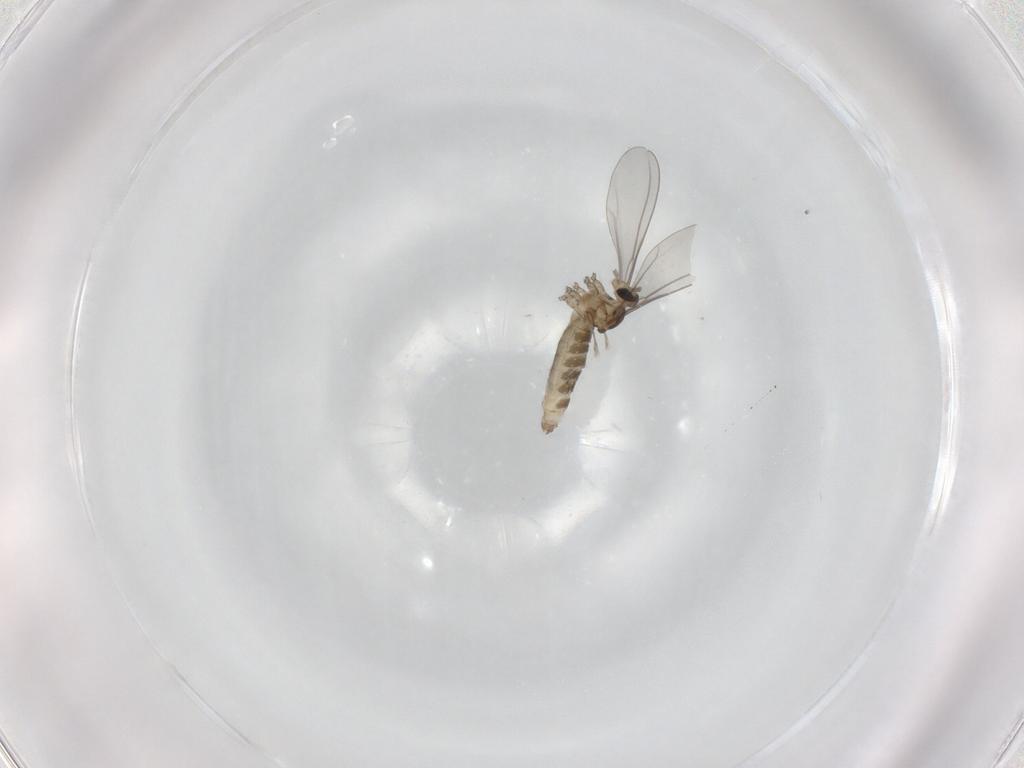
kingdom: Animalia
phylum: Arthropoda
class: Insecta
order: Diptera
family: Cecidomyiidae
